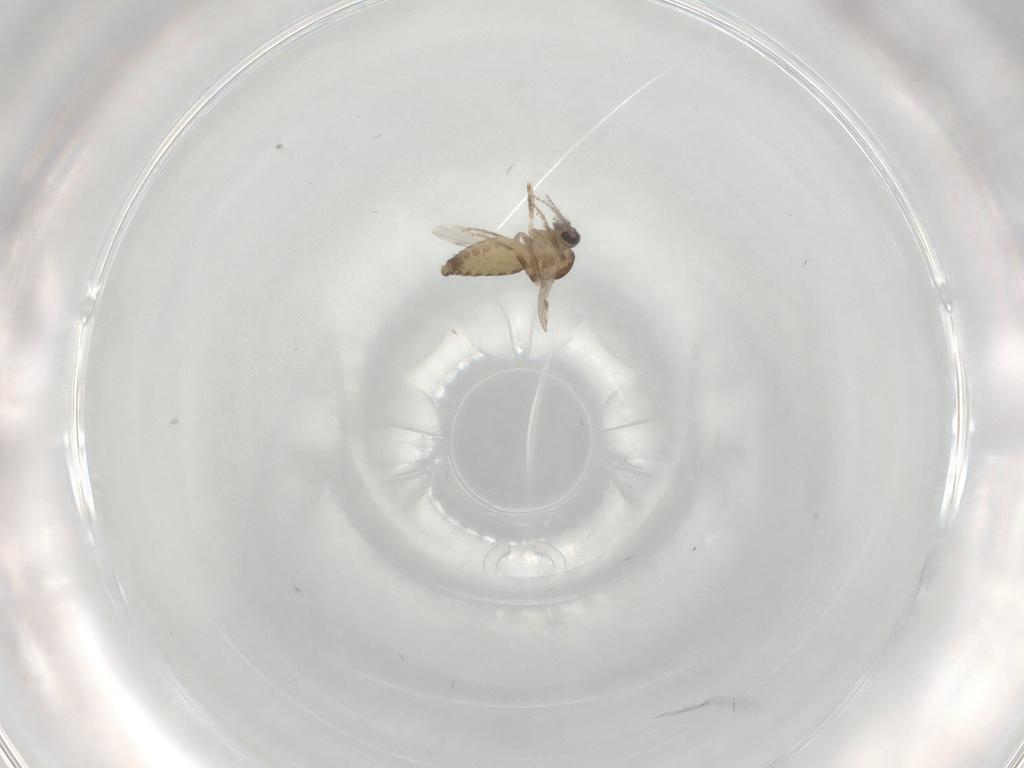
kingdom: Animalia
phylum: Arthropoda
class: Insecta
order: Diptera
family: Ceratopogonidae
